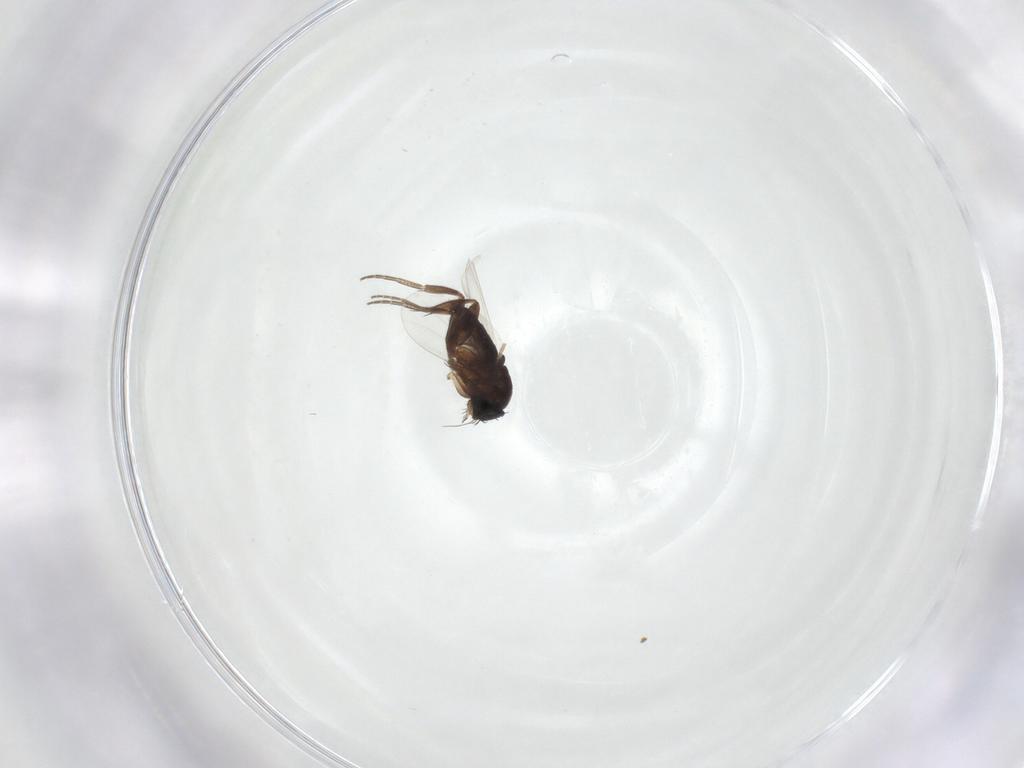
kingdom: Animalia
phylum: Arthropoda
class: Insecta
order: Diptera
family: Phoridae
